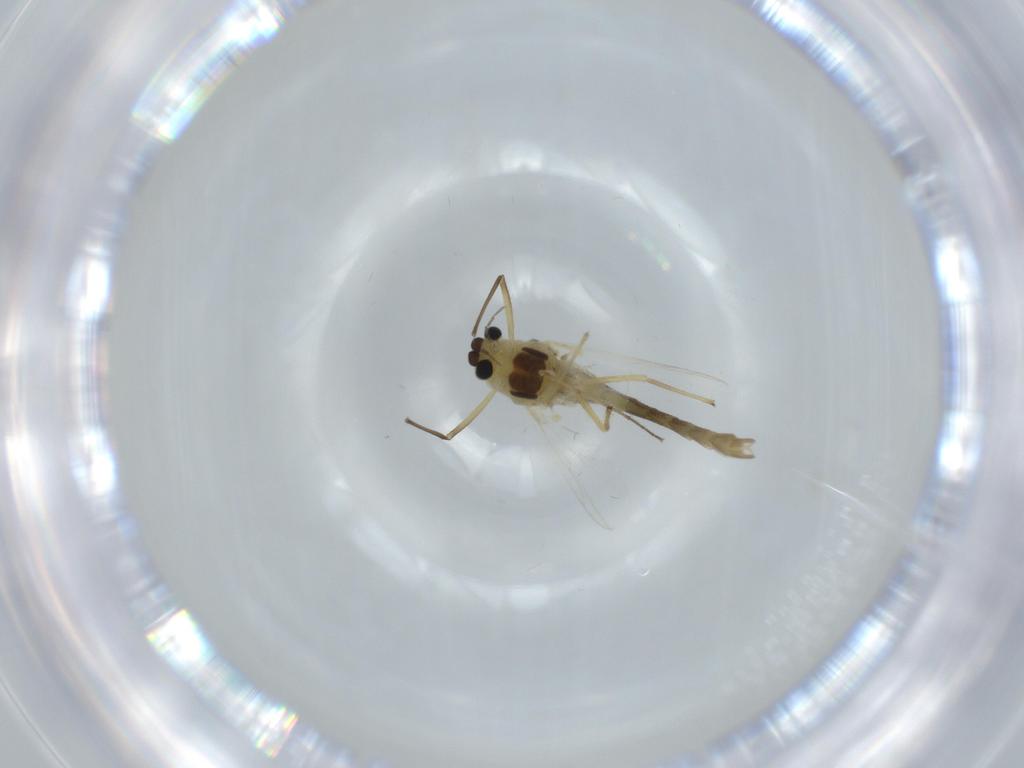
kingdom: Animalia
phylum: Arthropoda
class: Insecta
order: Diptera
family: Chironomidae
